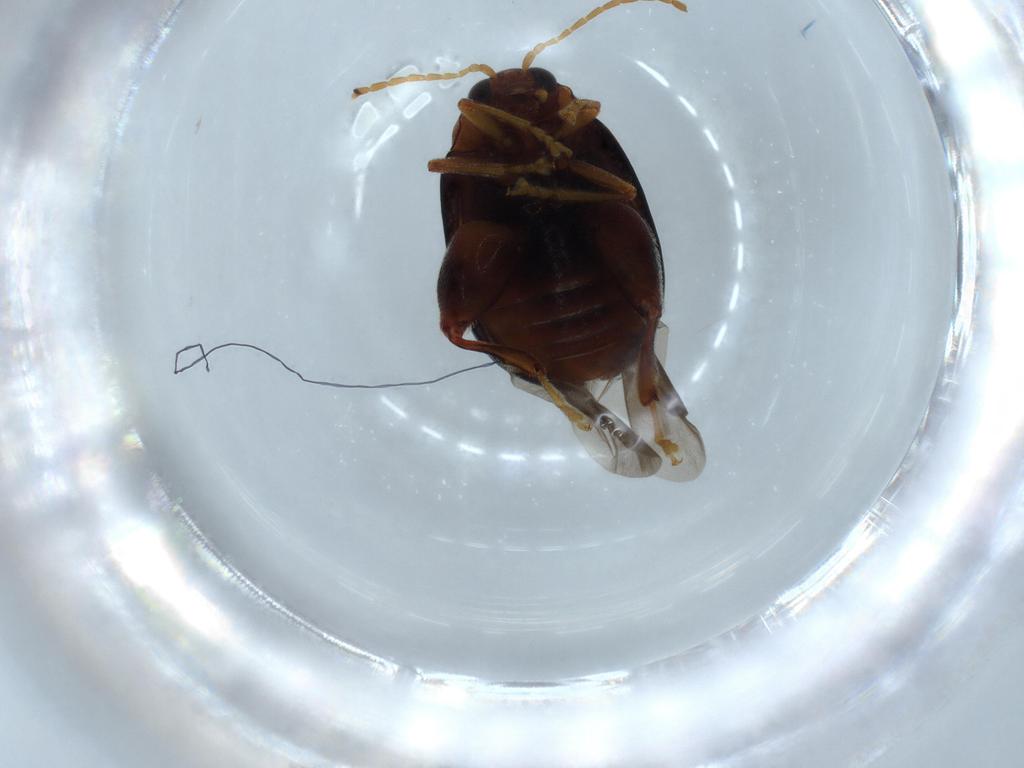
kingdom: Animalia
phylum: Arthropoda
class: Insecta
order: Coleoptera
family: Chrysomelidae
